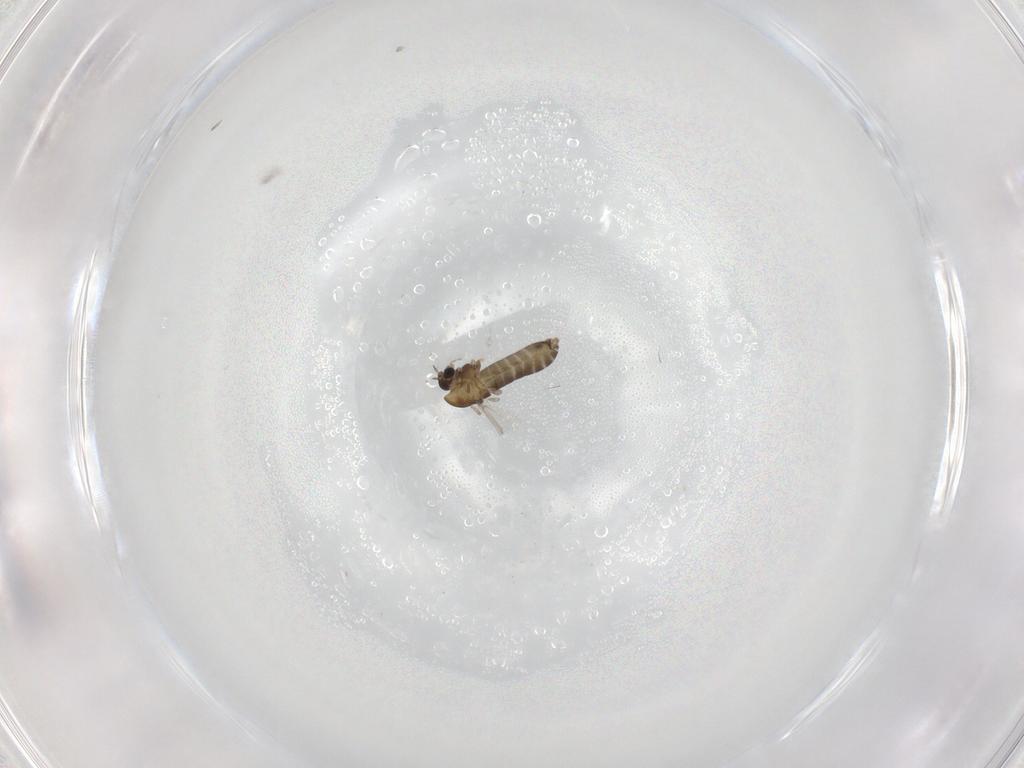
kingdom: Animalia
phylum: Arthropoda
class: Insecta
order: Diptera
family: Chironomidae
